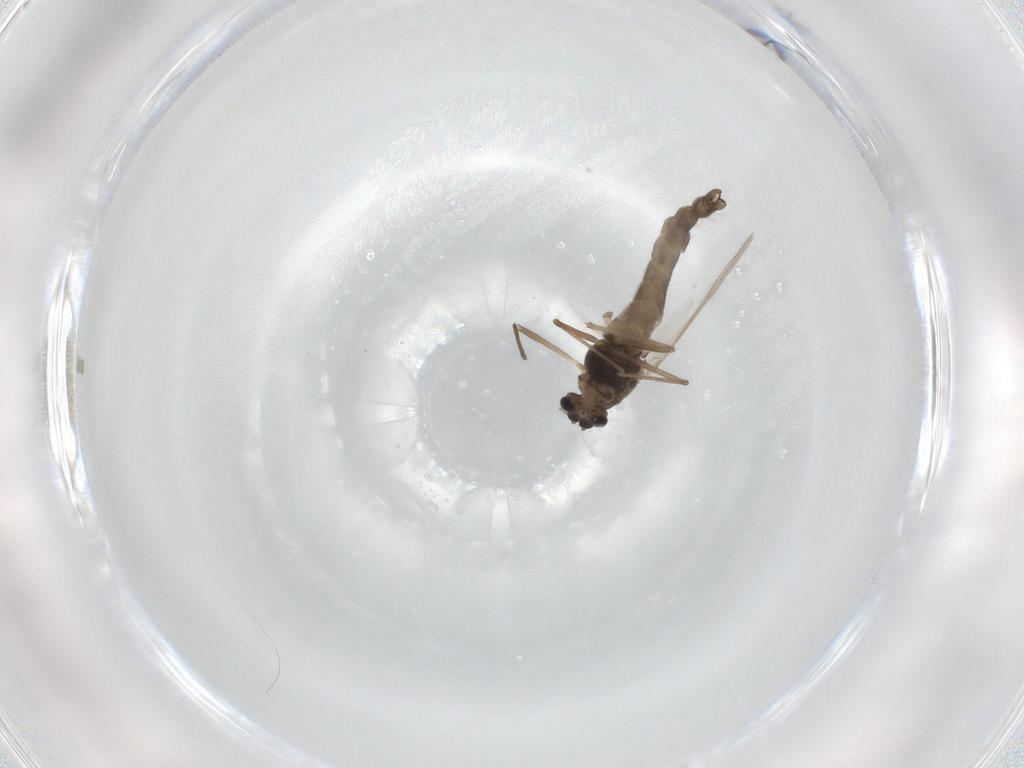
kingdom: Animalia
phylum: Arthropoda
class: Insecta
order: Diptera
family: Chironomidae
